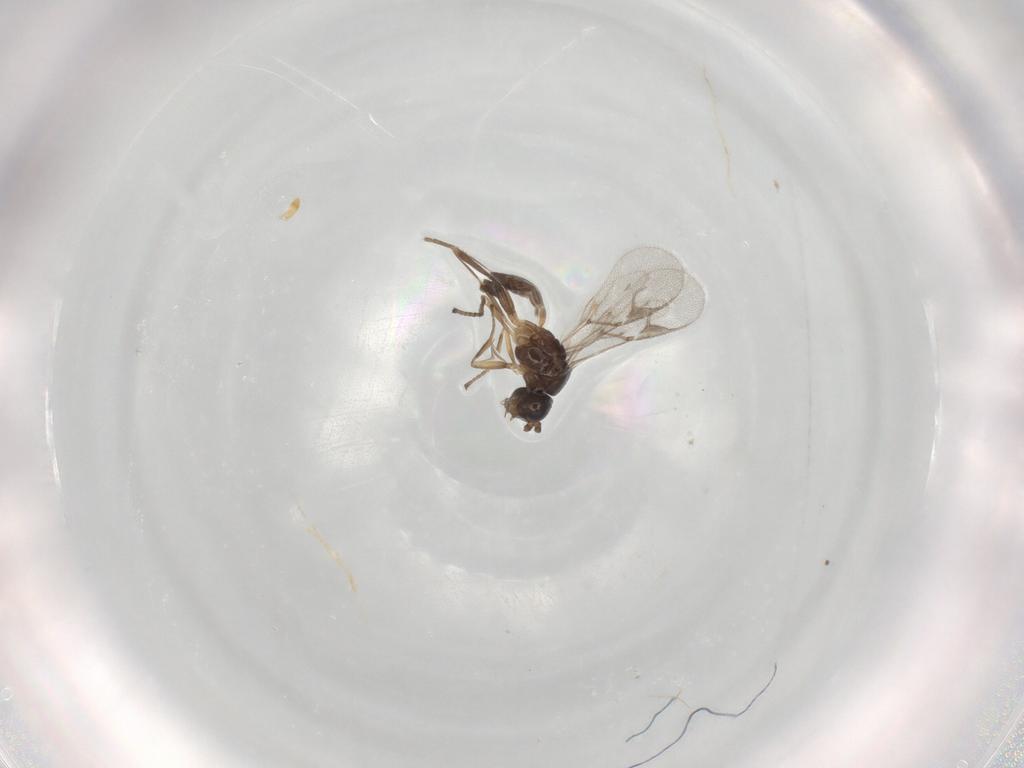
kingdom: Animalia
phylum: Arthropoda
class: Insecta
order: Hymenoptera
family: Braconidae
